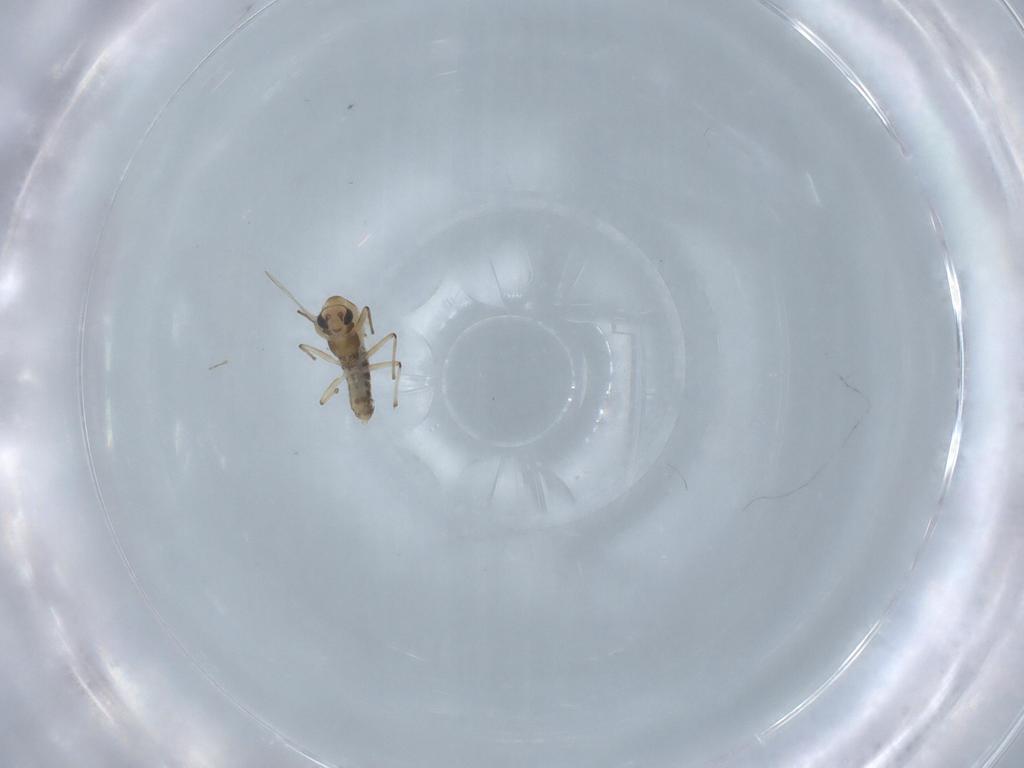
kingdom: Animalia
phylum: Arthropoda
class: Insecta
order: Diptera
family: Chironomidae
